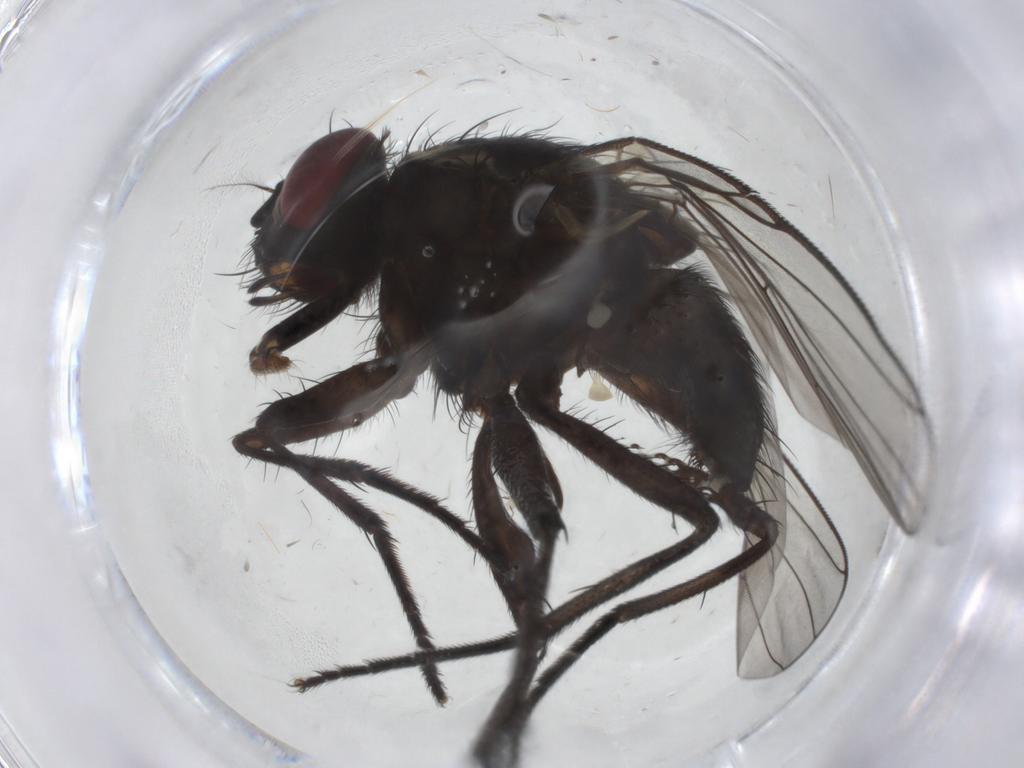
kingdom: Animalia
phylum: Arthropoda
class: Insecta
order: Diptera
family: Muscidae
